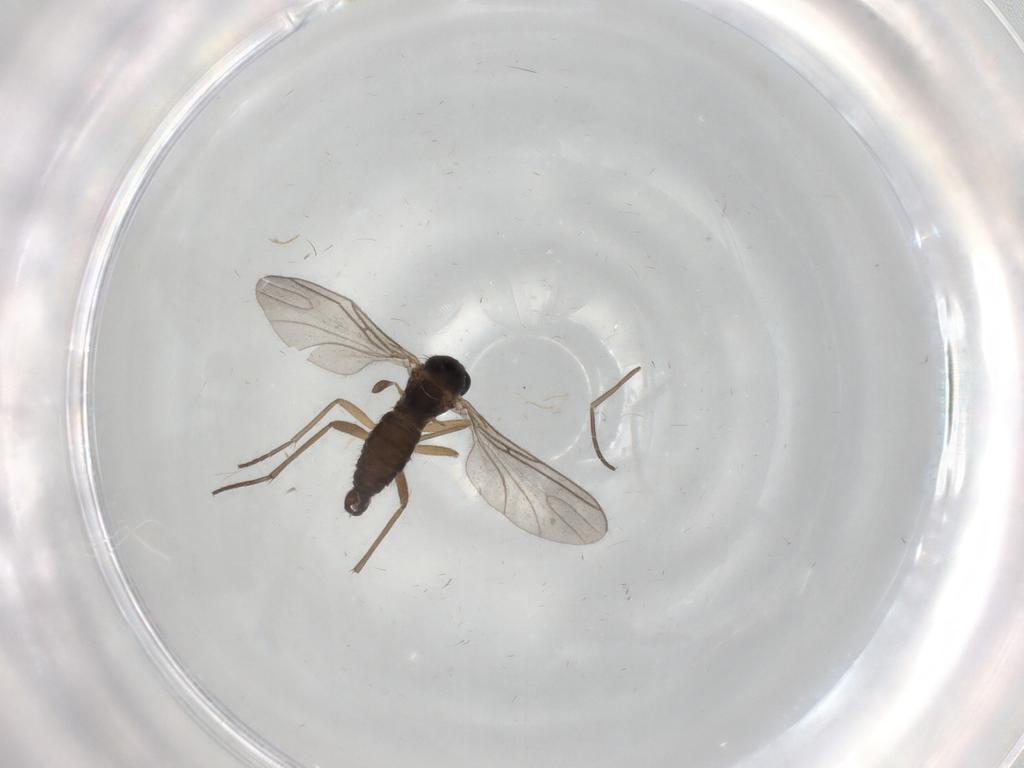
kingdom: Animalia
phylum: Arthropoda
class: Insecta
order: Diptera
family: Sciaridae
